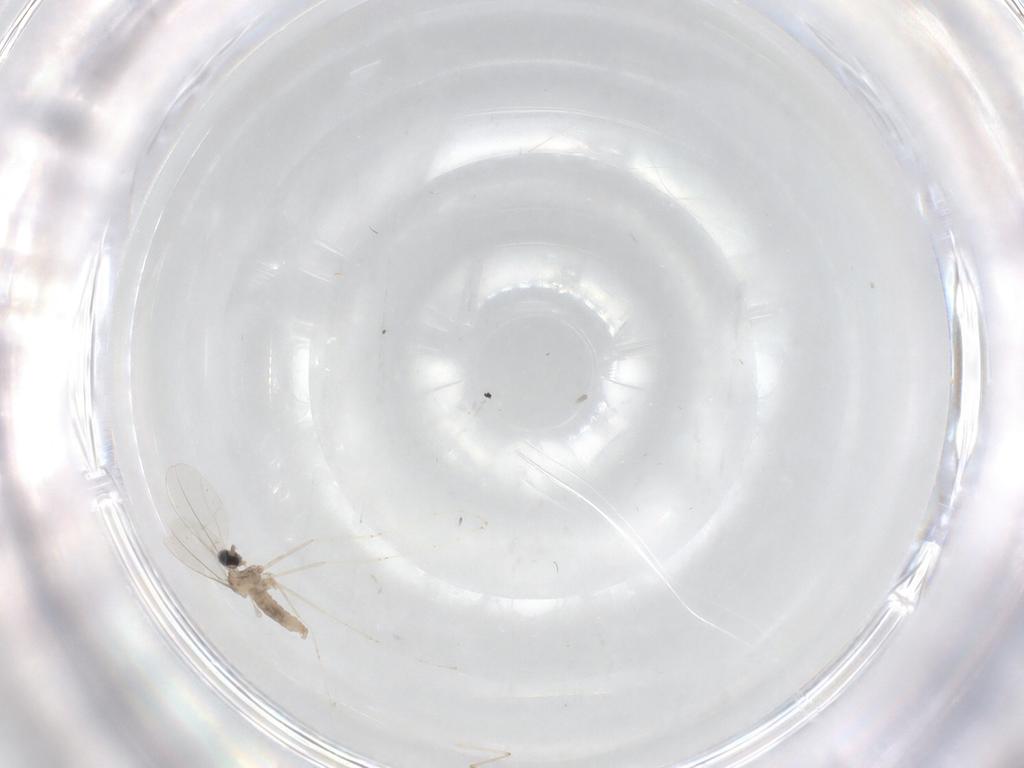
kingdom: Animalia
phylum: Arthropoda
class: Insecta
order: Diptera
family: Cecidomyiidae
